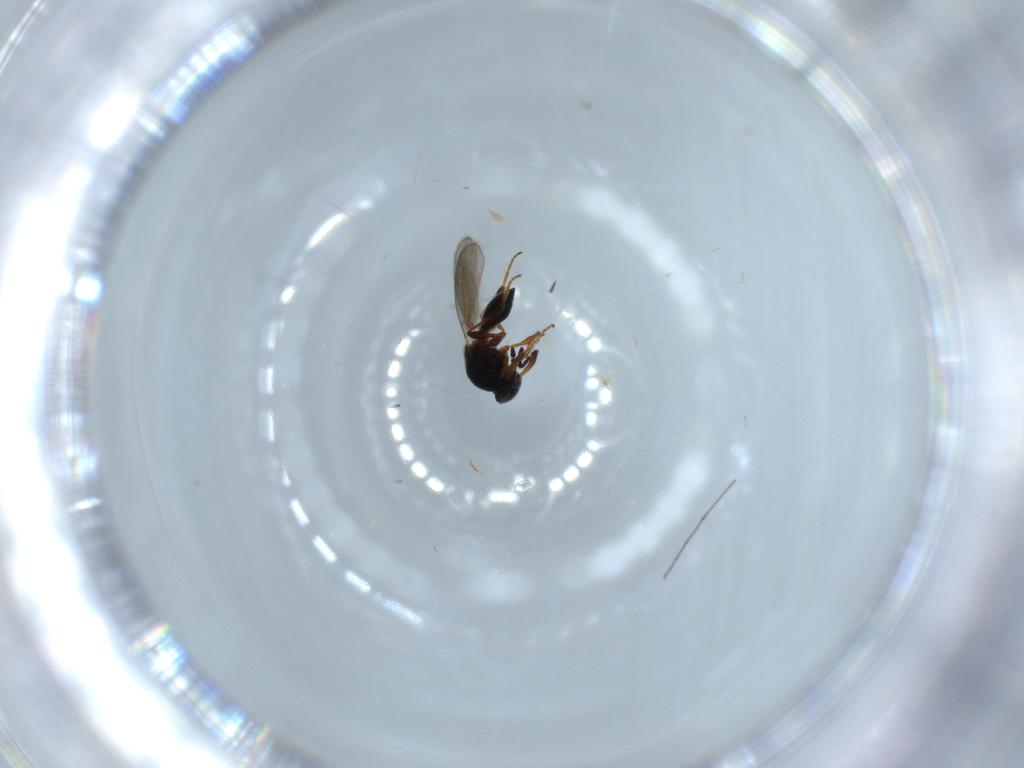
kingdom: Animalia
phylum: Arthropoda
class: Insecta
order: Hymenoptera
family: Platygastridae
